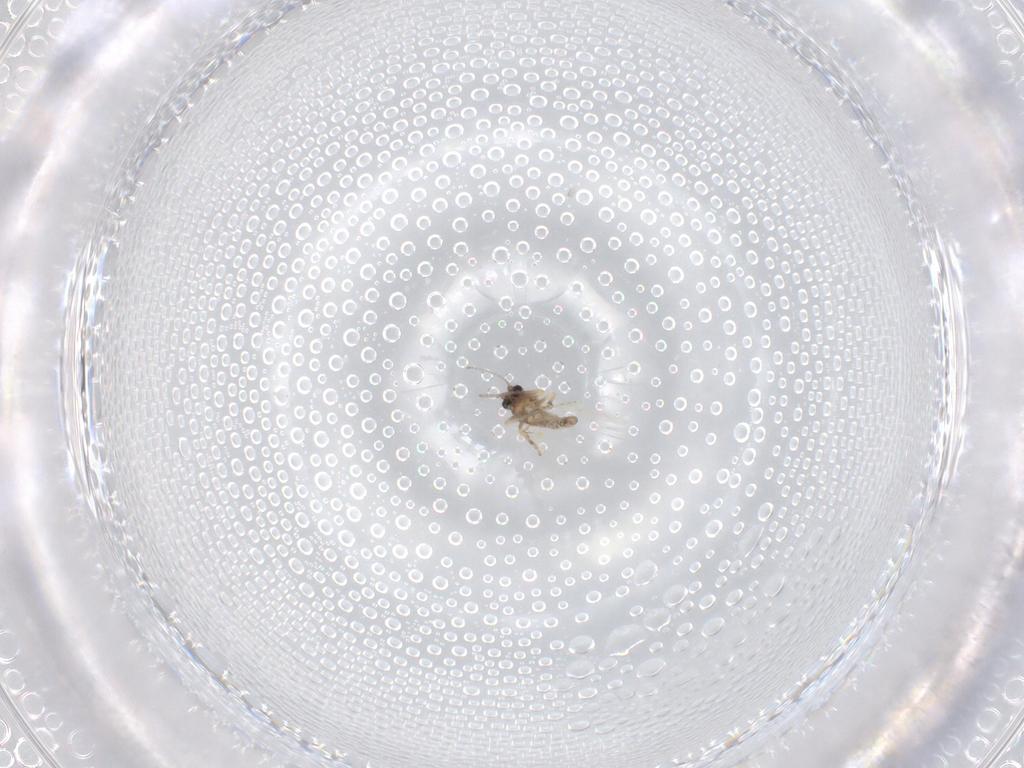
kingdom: Animalia
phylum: Arthropoda
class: Insecta
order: Diptera
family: Ceratopogonidae
